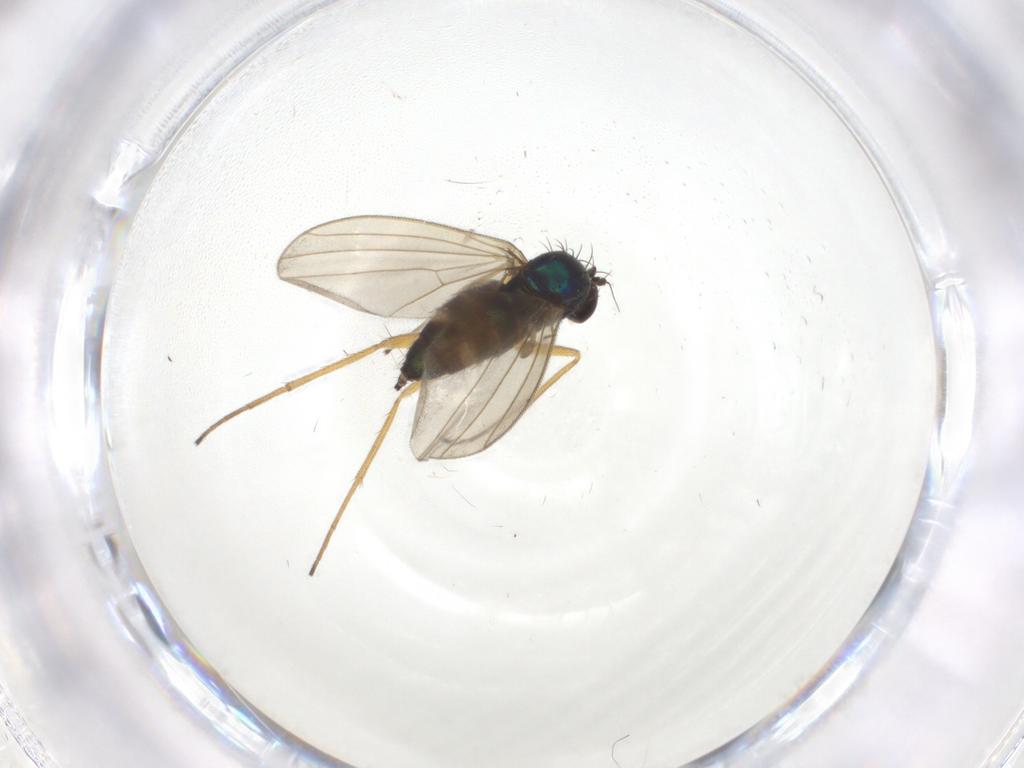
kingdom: Animalia
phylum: Arthropoda
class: Insecta
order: Diptera
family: Dolichopodidae
